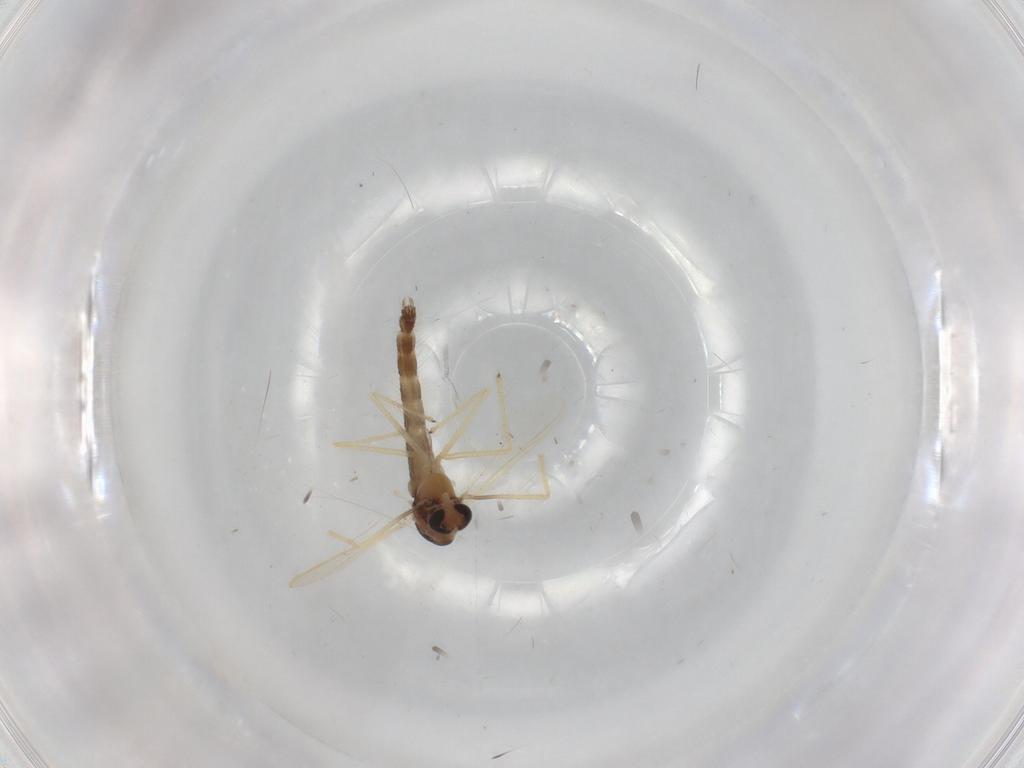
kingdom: Animalia
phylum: Arthropoda
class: Insecta
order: Diptera
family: Chironomidae
